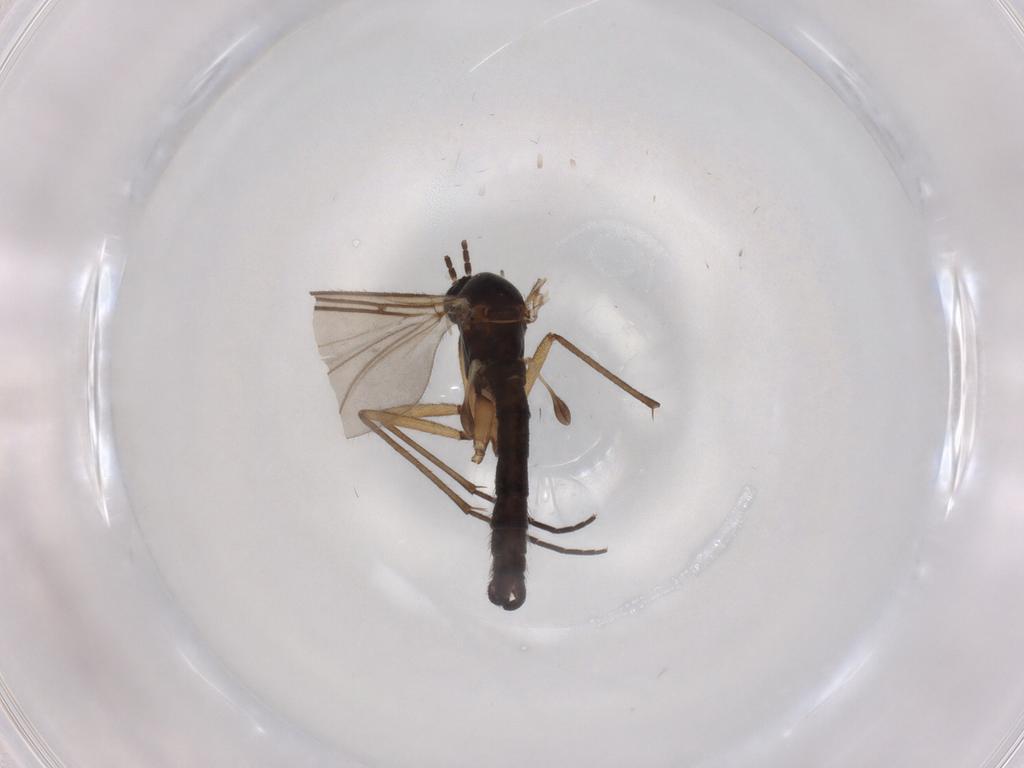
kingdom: Animalia
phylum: Arthropoda
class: Insecta
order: Diptera
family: Sciaridae
